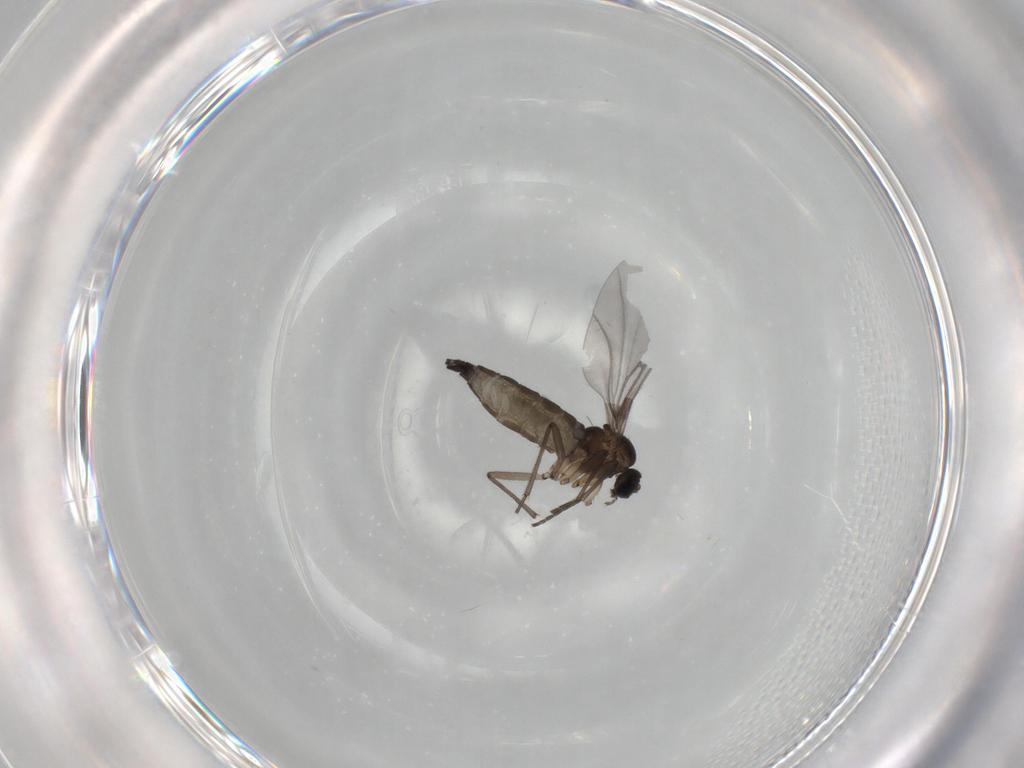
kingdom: Animalia
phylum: Arthropoda
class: Insecta
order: Diptera
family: Sciaridae
